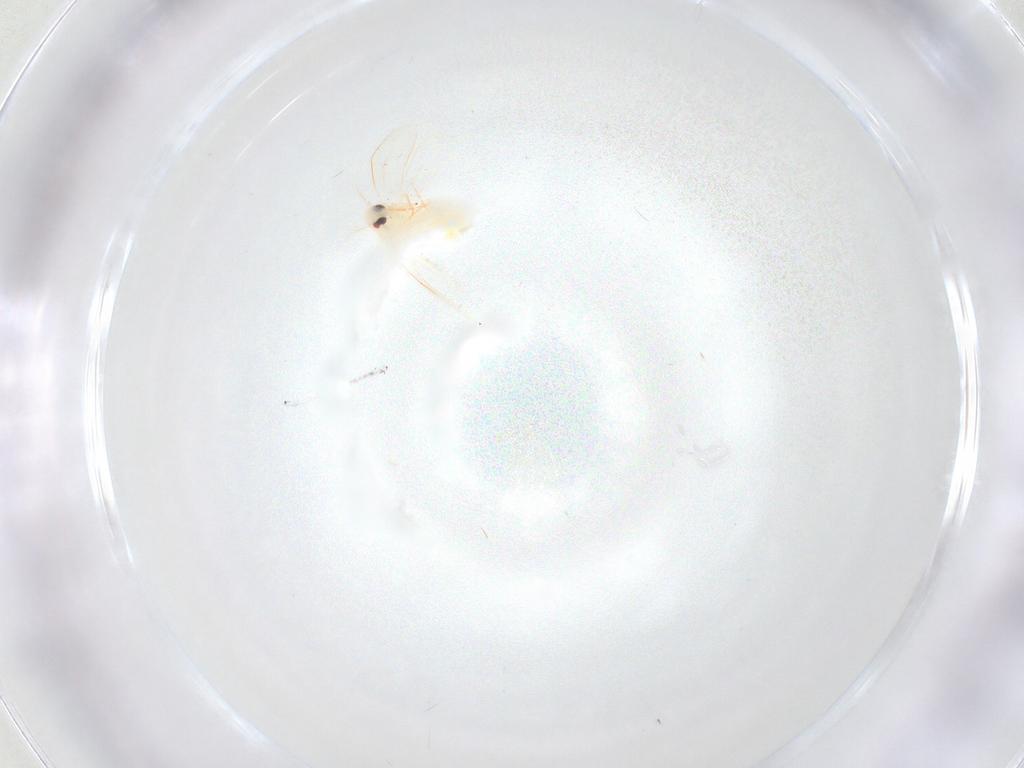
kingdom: Animalia
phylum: Arthropoda
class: Insecta
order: Hemiptera
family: Aleyrodidae
